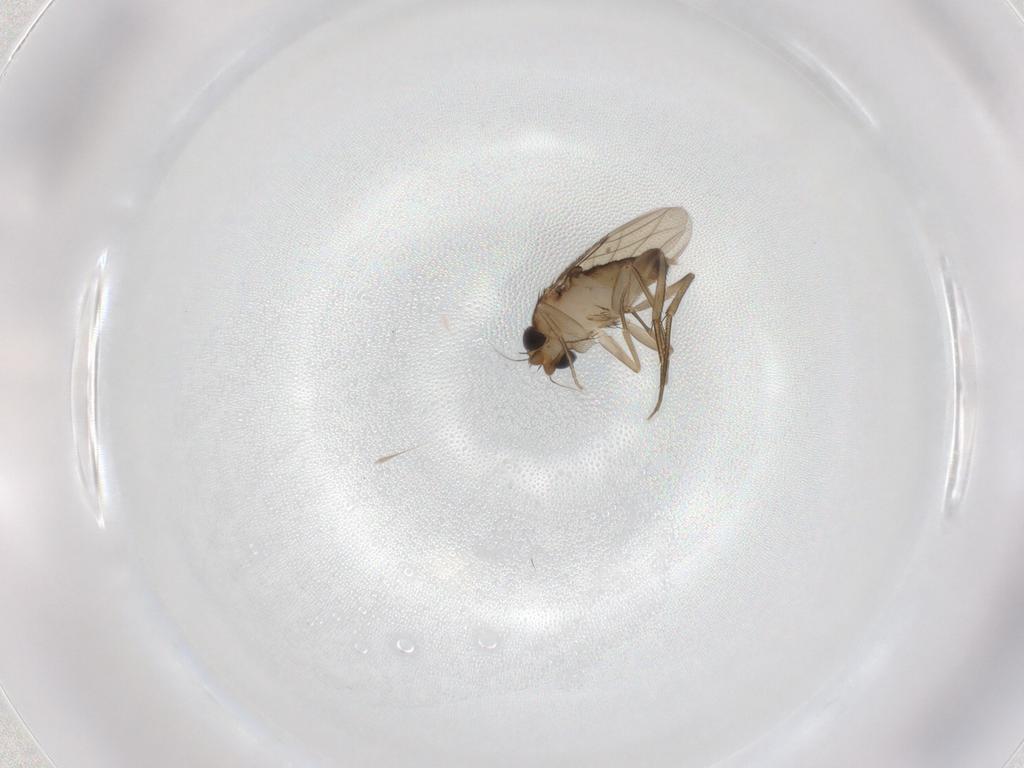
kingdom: Animalia
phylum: Arthropoda
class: Insecta
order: Diptera
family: Phoridae
